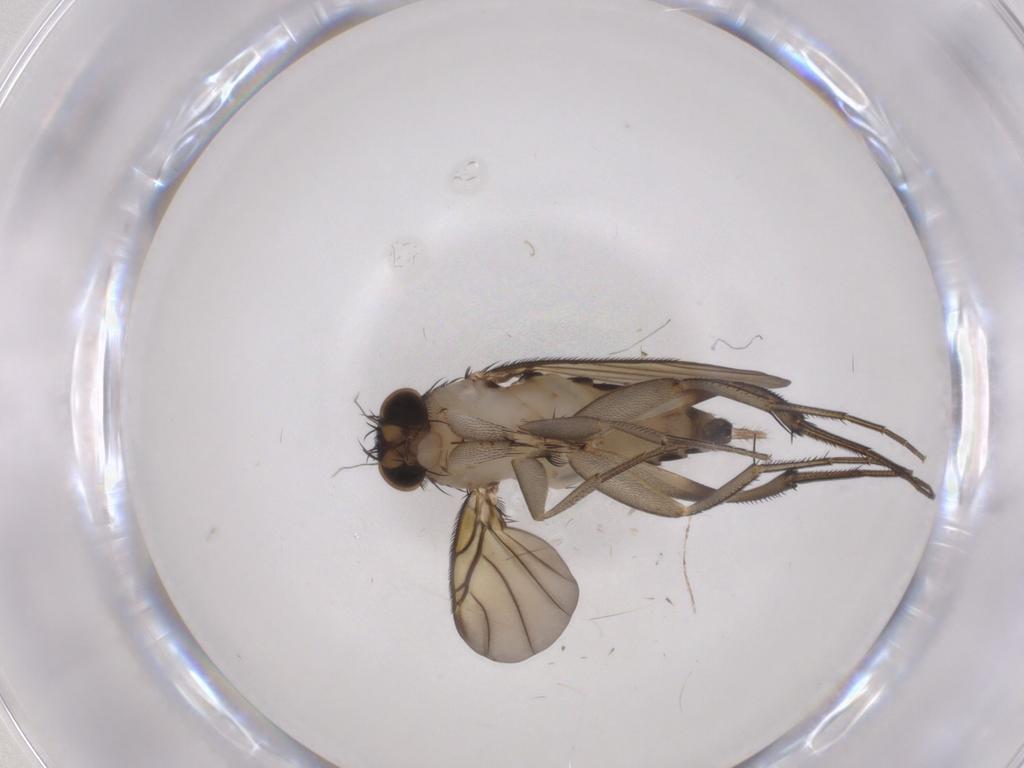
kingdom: Animalia
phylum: Arthropoda
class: Insecta
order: Diptera
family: Phoridae
